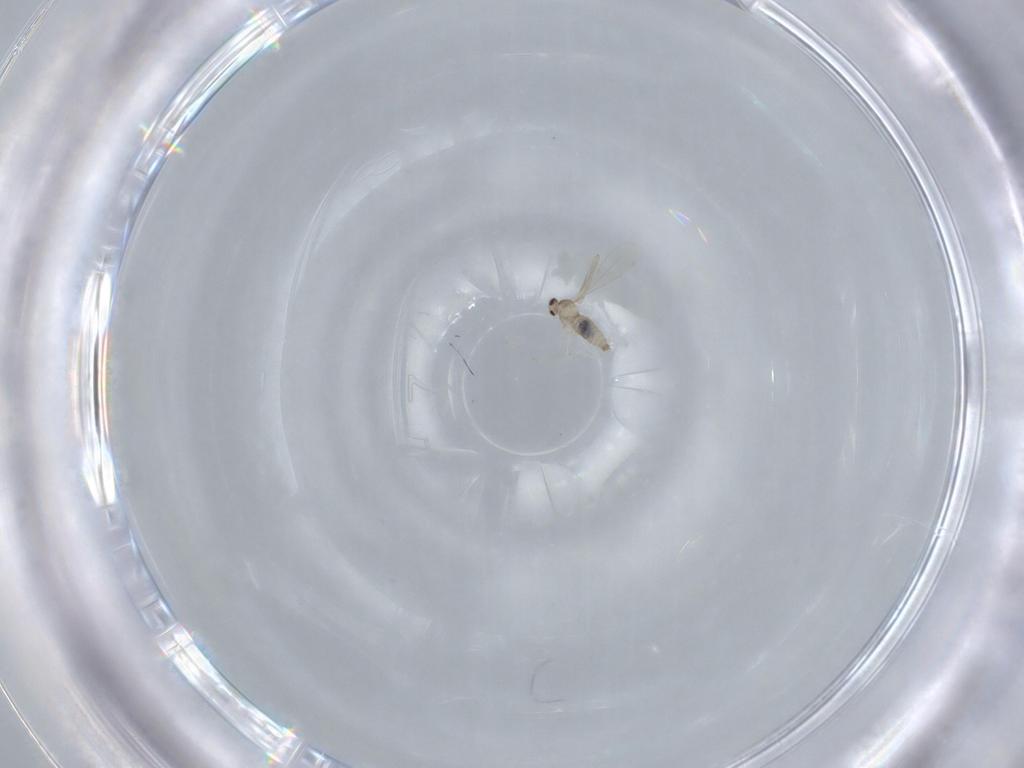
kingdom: Animalia
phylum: Arthropoda
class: Insecta
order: Diptera
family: Cecidomyiidae
